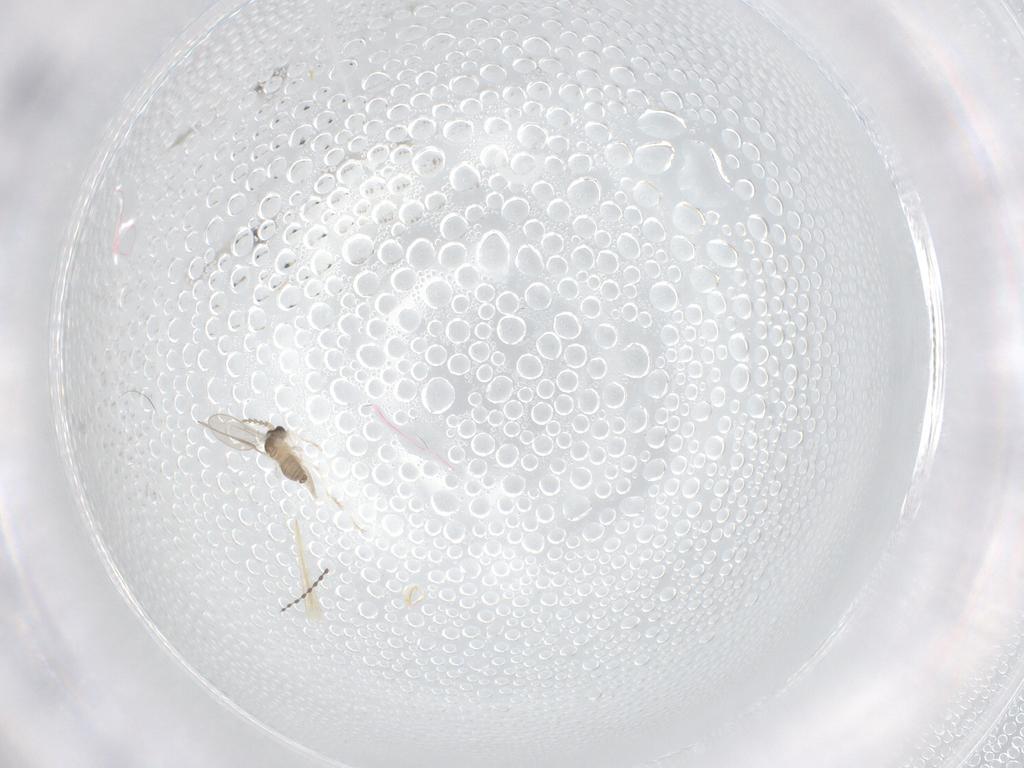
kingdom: Animalia
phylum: Arthropoda
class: Insecta
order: Diptera
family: Cecidomyiidae
